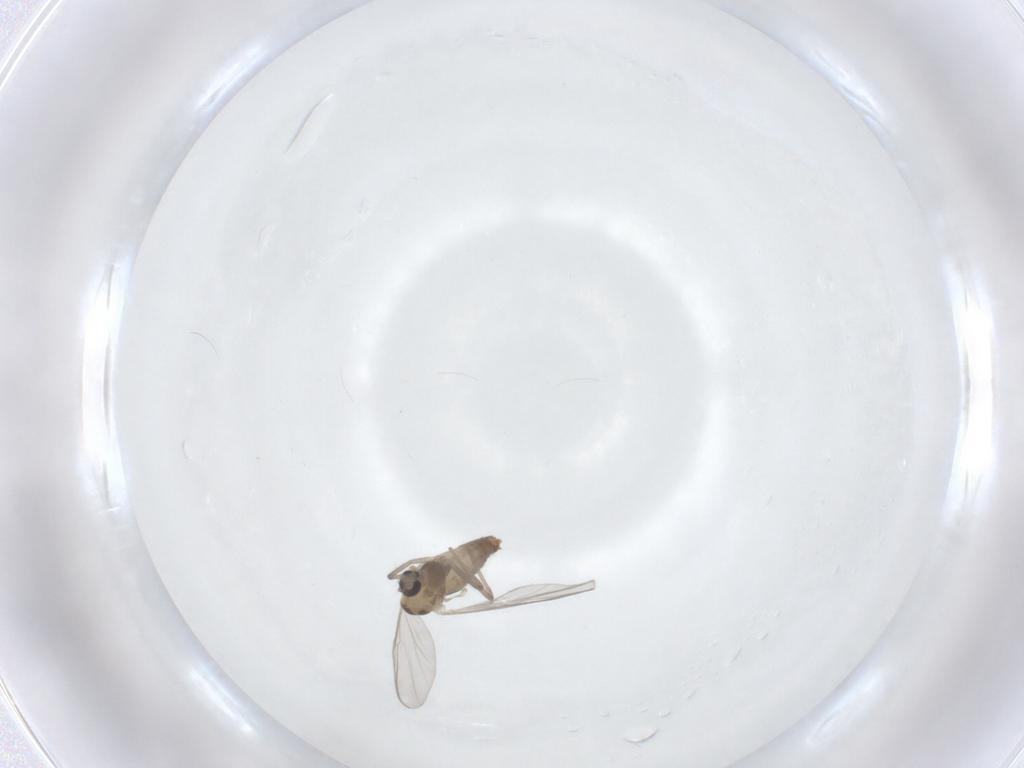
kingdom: Animalia
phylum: Arthropoda
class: Insecta
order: Diptera
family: Chironomidae
